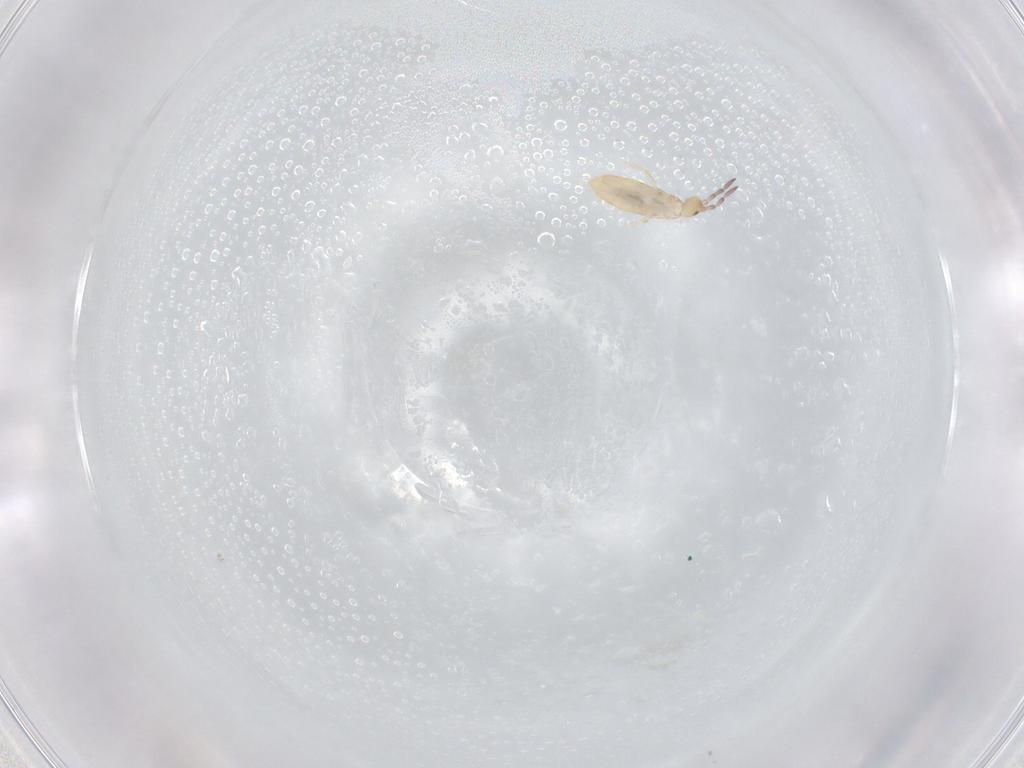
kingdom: Animalia
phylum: Arthropoda
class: Collembola
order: Entomobryomorpha
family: Entomobryidae
